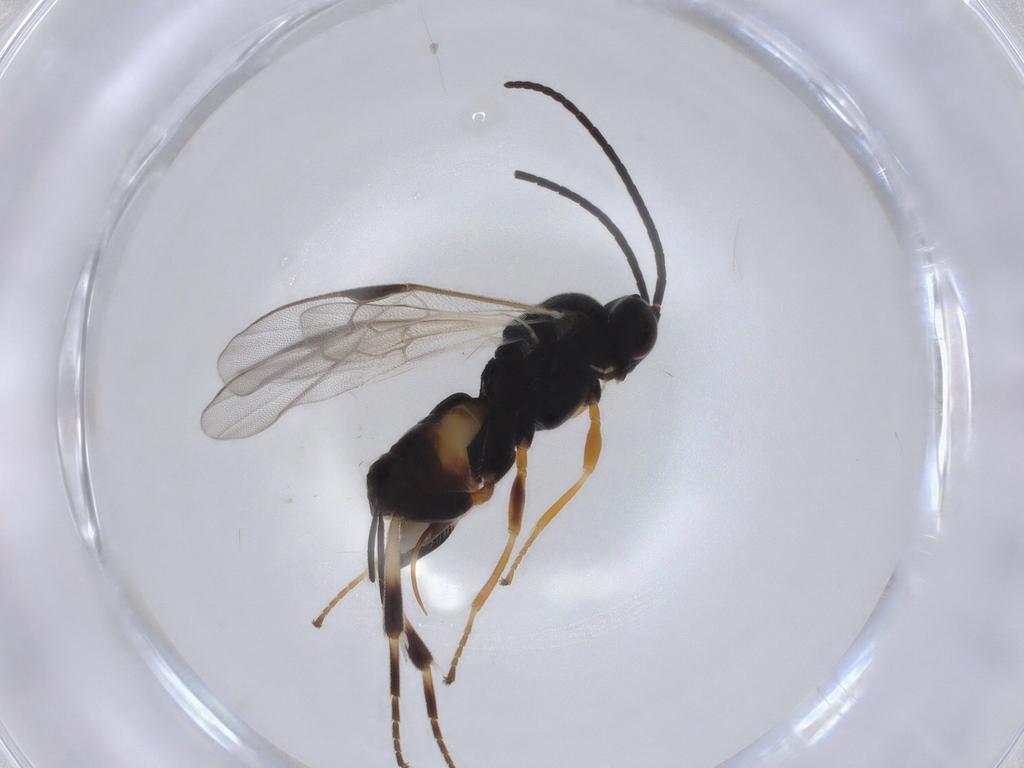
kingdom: Animalia
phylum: Arthropoda
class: Insecta
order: Hymenoptera
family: Braconidae
